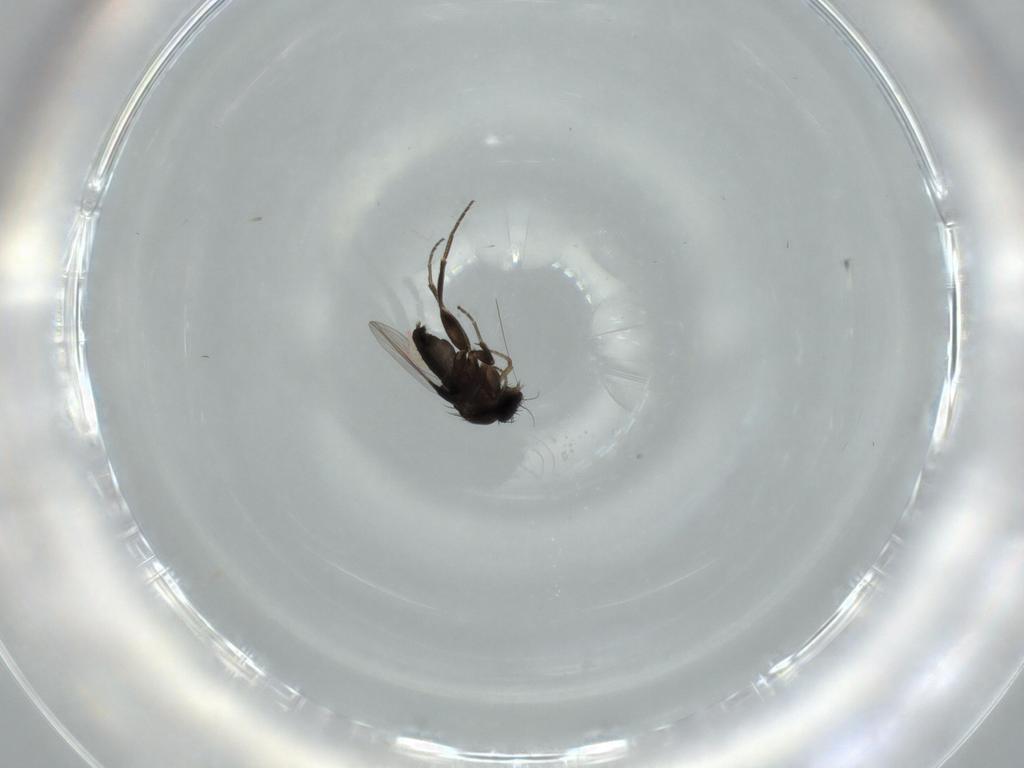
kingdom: Animalia
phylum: Arthropoda
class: Insecta
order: Diptera
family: Phoridae
